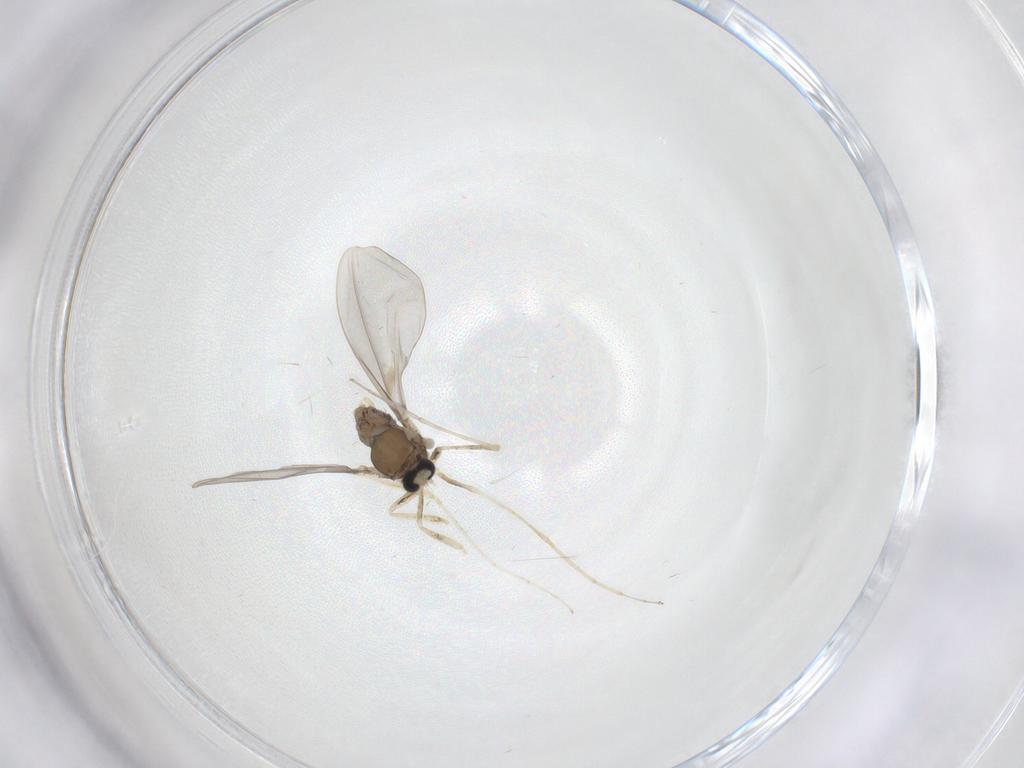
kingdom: Animalia
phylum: Arthropoda
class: Insecta
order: Diptera
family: Cecidomyiidae
